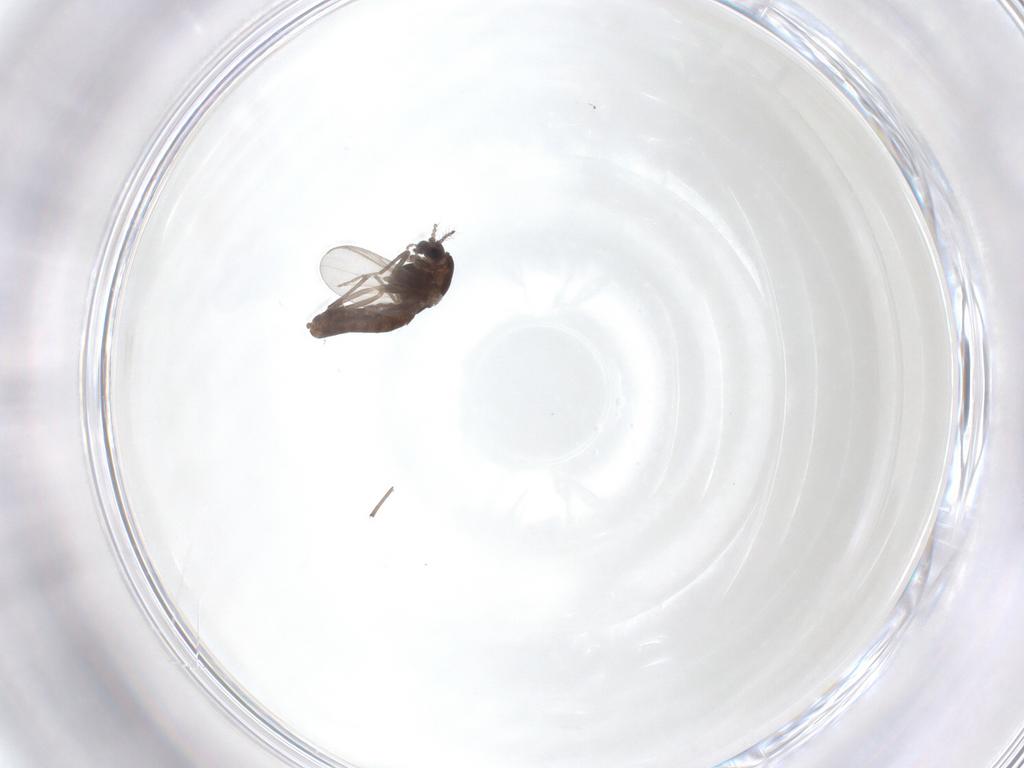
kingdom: Animalia
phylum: Arthropoda
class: Insecta
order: Diptera
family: Chironomidae
